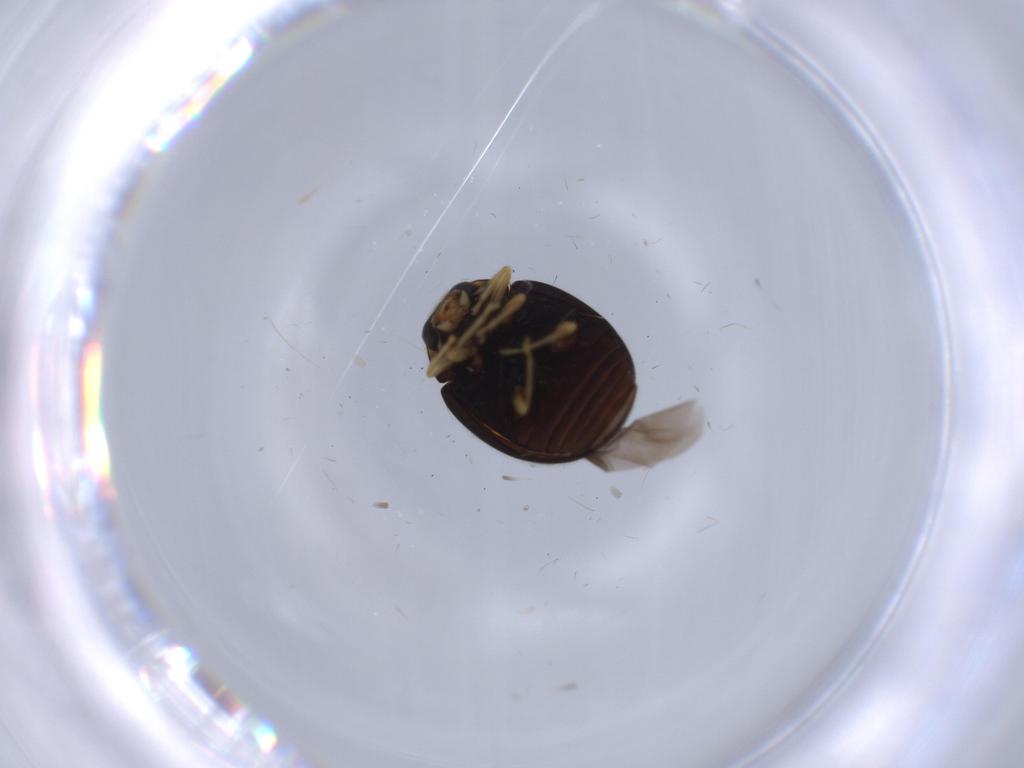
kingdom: Animalia
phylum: Arthropoda
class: Insecta
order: Coleoptera
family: Coccinellidae
